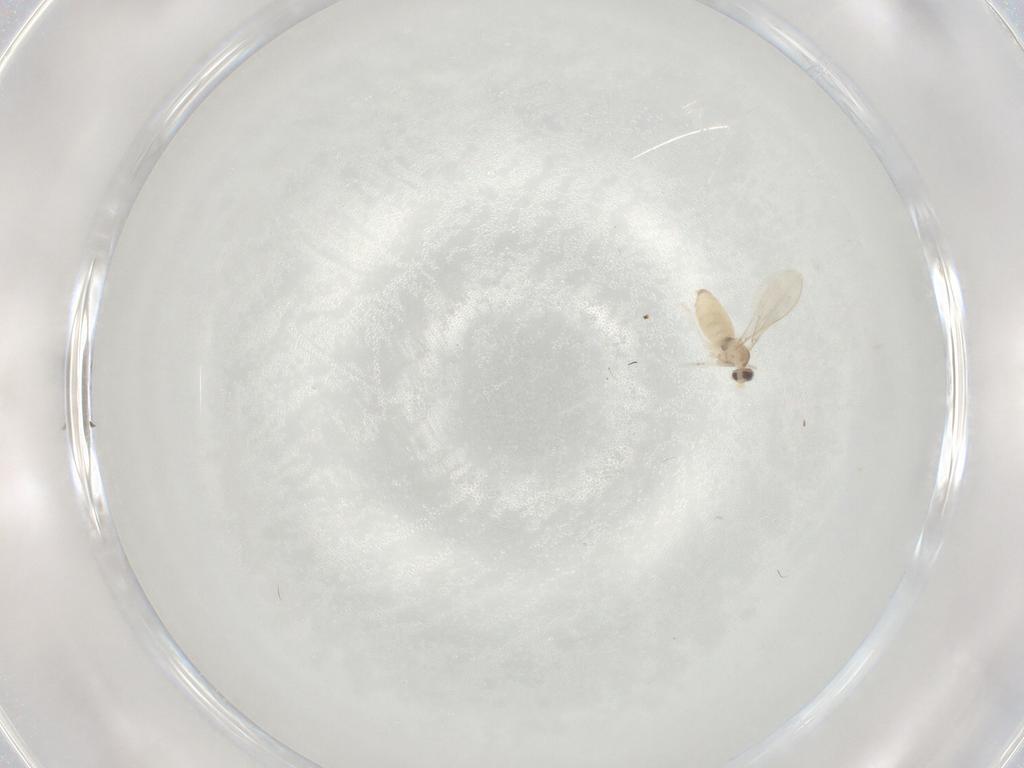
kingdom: Animalia
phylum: Arthropoda
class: Insecta
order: Diptera
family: Cecidomyiidae
